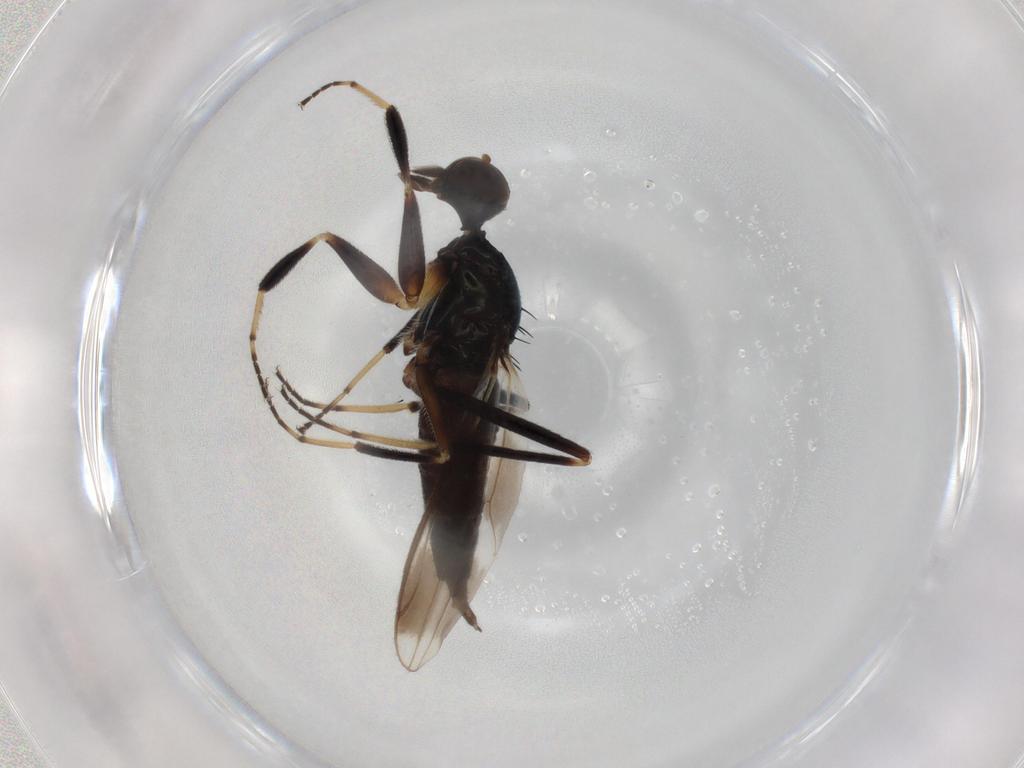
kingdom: Animalia
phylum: Arthropoda
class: Insecta
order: Diptera
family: Hybotidae
